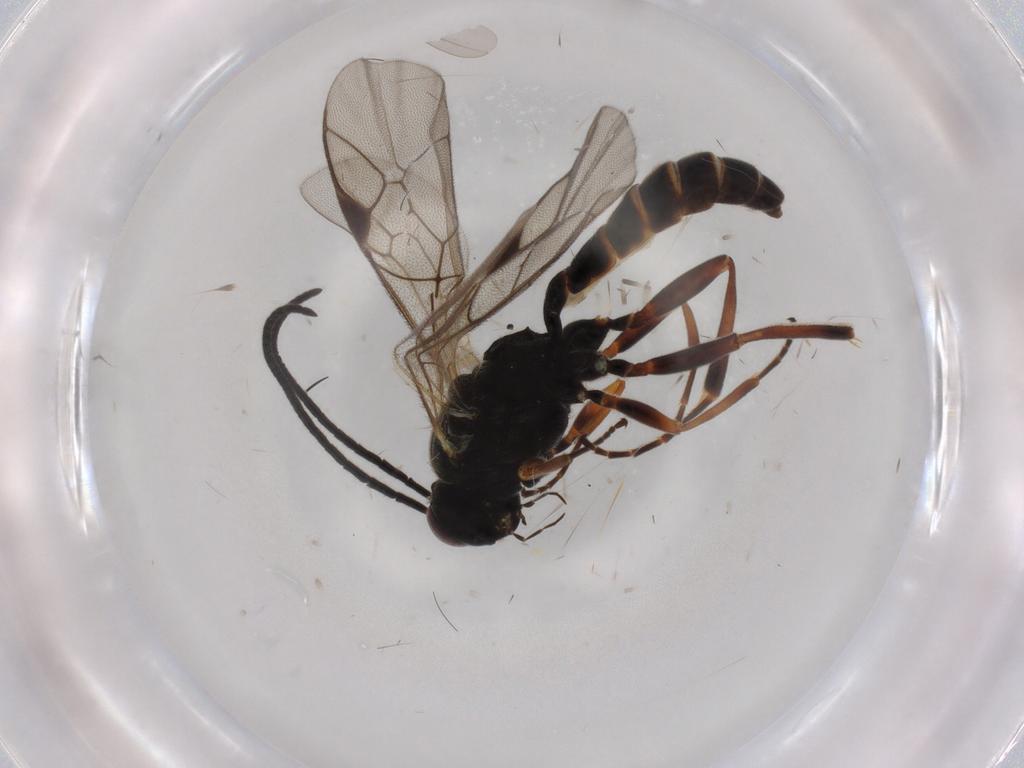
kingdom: Animalia
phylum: Arthropoda
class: Insecta
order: Hymenoptera
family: Ichneumonidae
